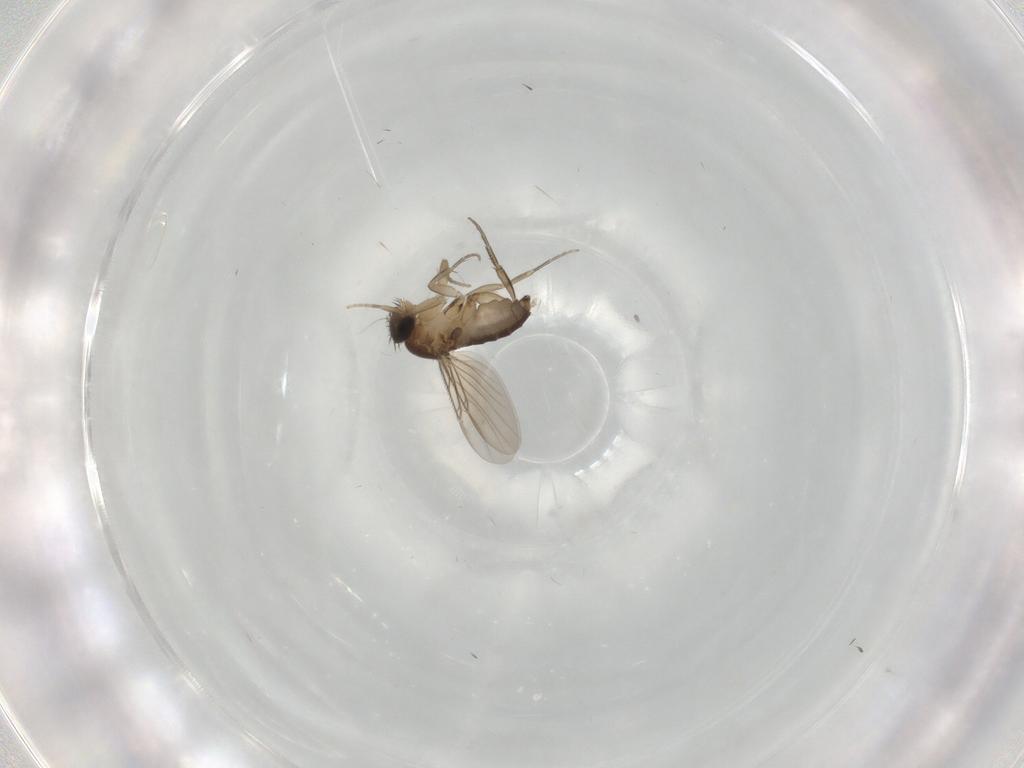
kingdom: Animalia
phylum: Arthropoda
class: Insecta
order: Diptera
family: Phoridae
